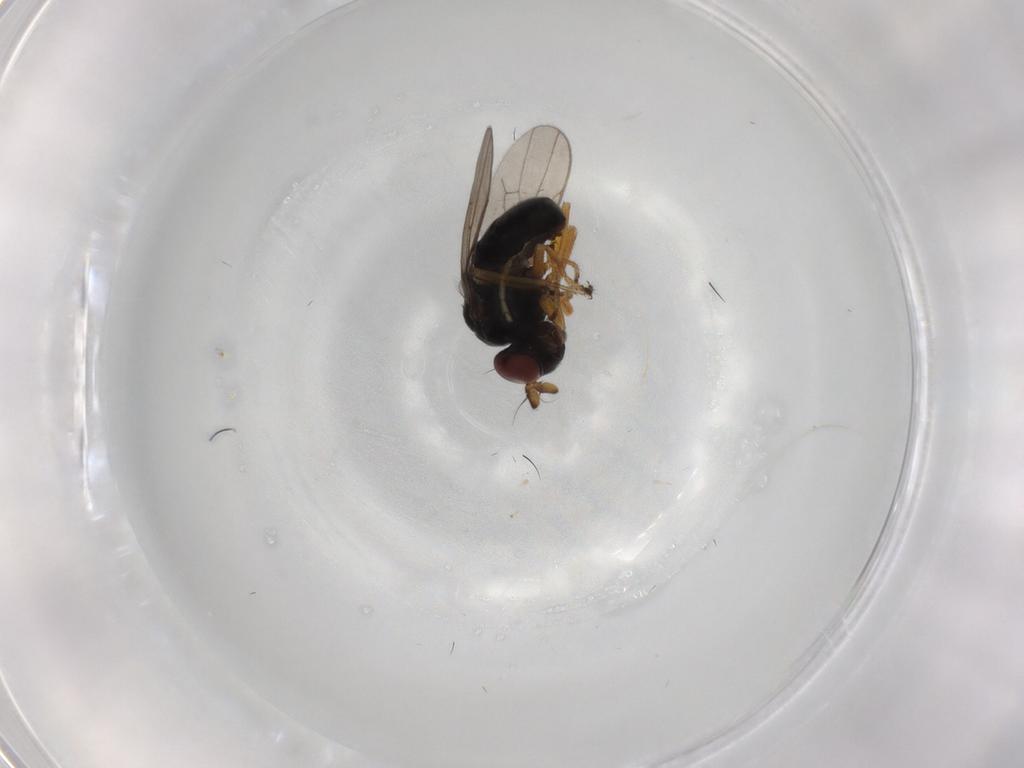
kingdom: Animalia
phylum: Arthropoda
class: Insecta
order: Diptera
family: Ephydridae
